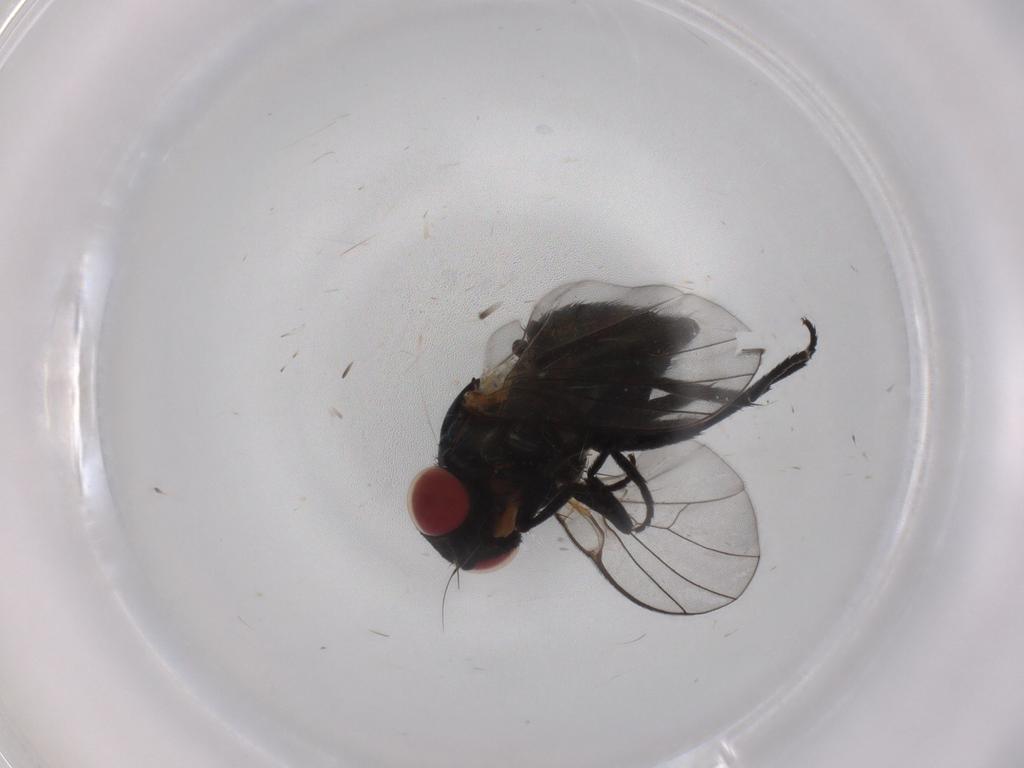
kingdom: Animalia
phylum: Arthropoda
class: Insecta
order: Diptera
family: Agromyzidae
